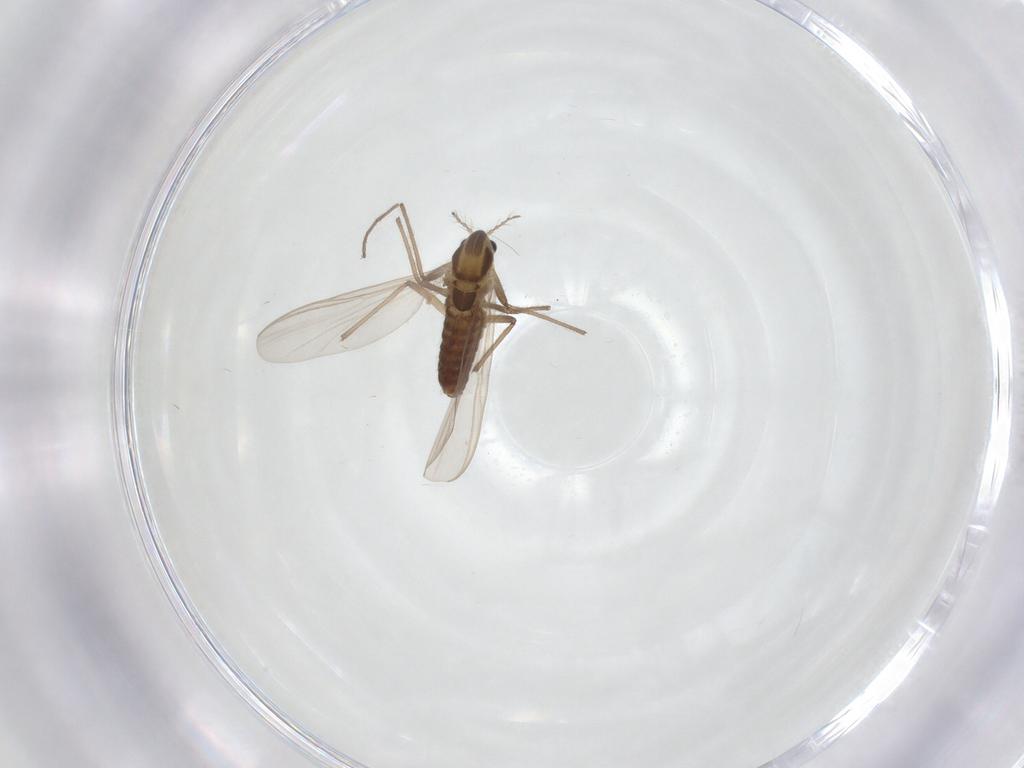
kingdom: Animalia
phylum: Arthropoda
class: Insecta
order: Diptera
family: Chironomidae
